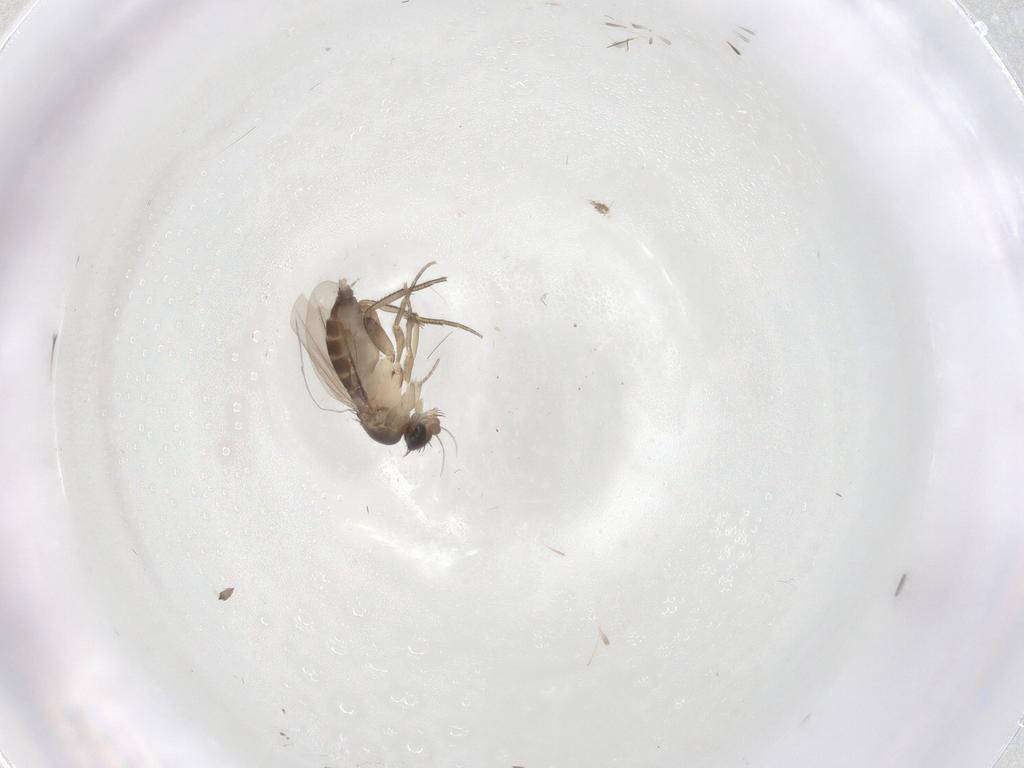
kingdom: Animalia
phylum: Arthropoda
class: Insecta
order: Diptera
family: Phoridae
